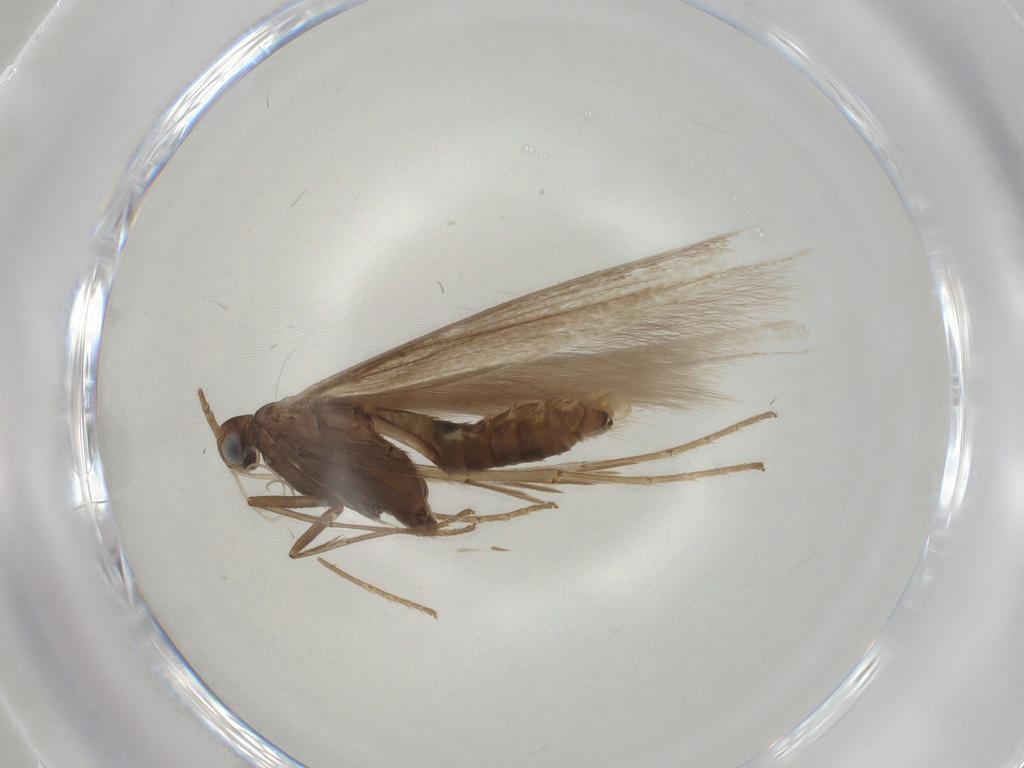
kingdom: Animalia
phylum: Arthropoda
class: Insecta
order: Lepidoptera
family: Coleophoridae
